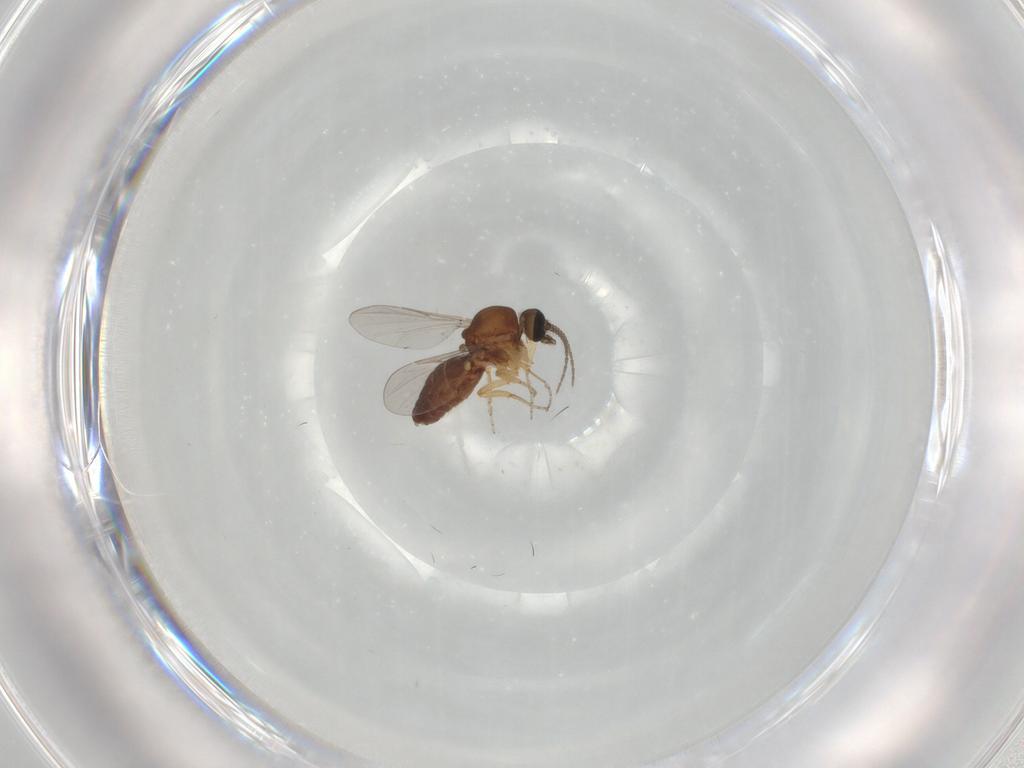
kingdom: Animalia
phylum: Arthropoda
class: Insecta
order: Diptera
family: Ceratopogonidae
